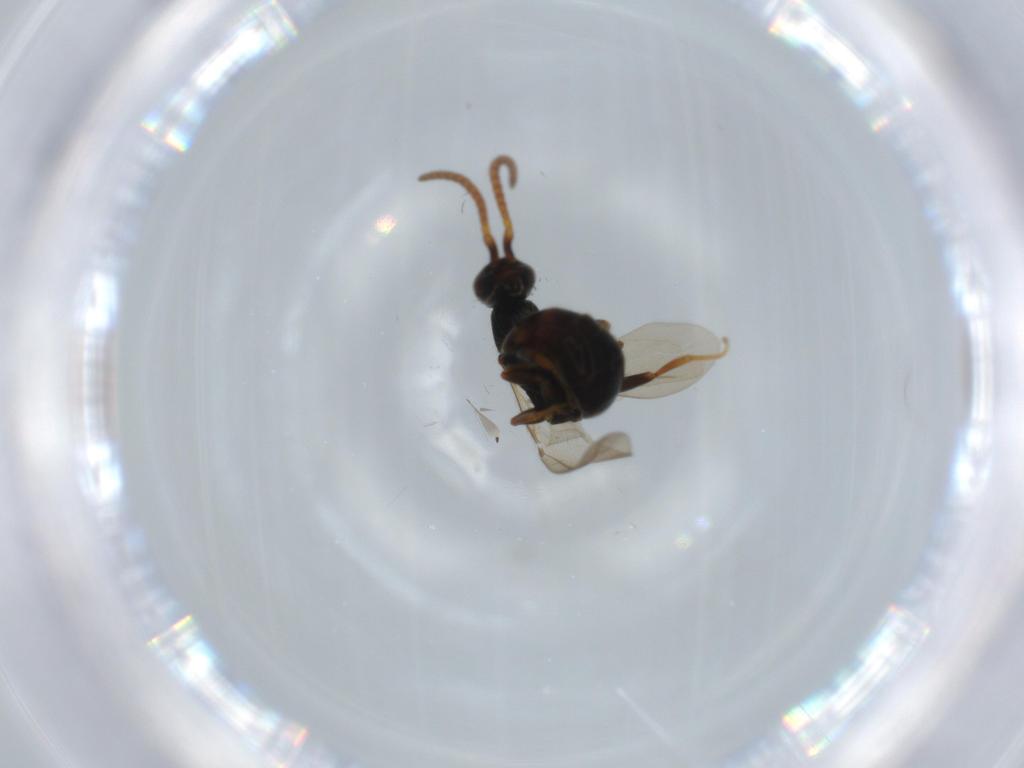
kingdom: Animalia
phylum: Arthropoda
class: Insecta
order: Hymenoptera
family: Bethylidae
